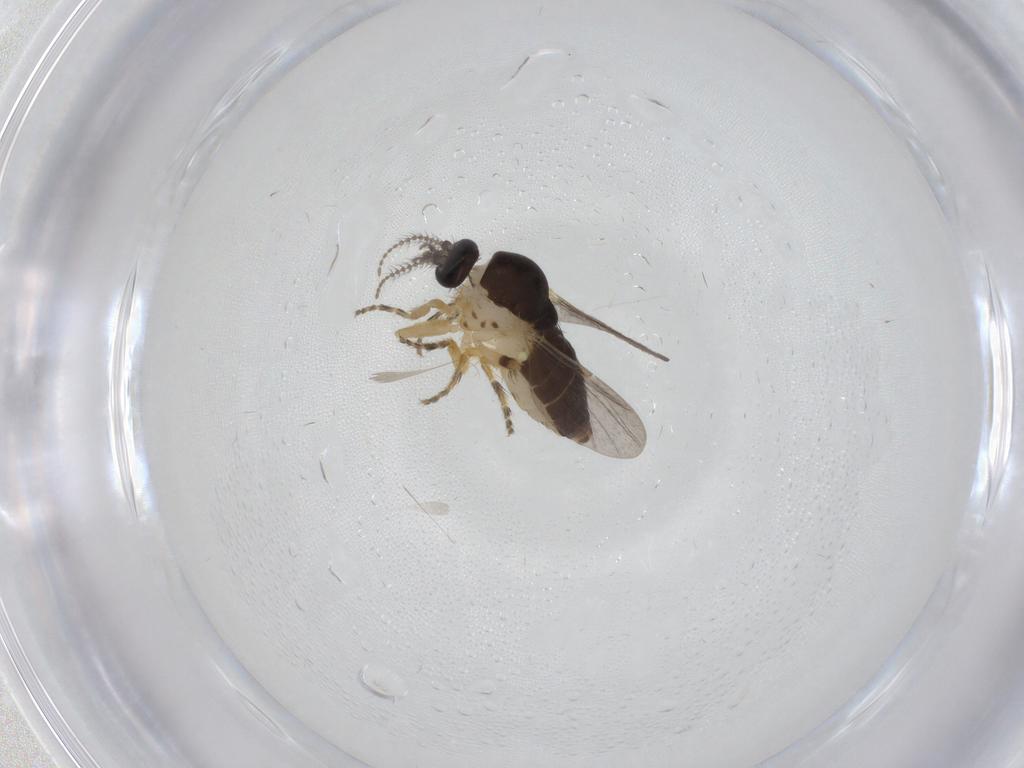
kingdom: Animalia
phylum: Arthropoda
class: Insecta
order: Diptera
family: Ceratopogonidae
